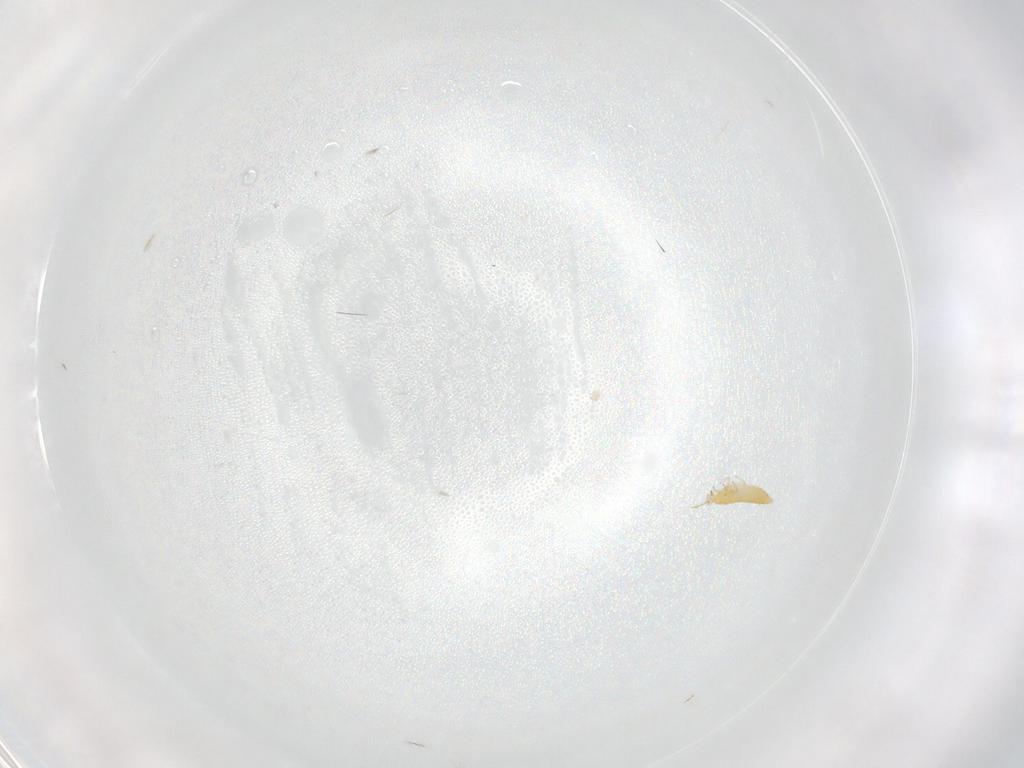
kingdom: Animalia
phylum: Arthropoda
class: Insecta
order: Thysanoptera
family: Thripidae
